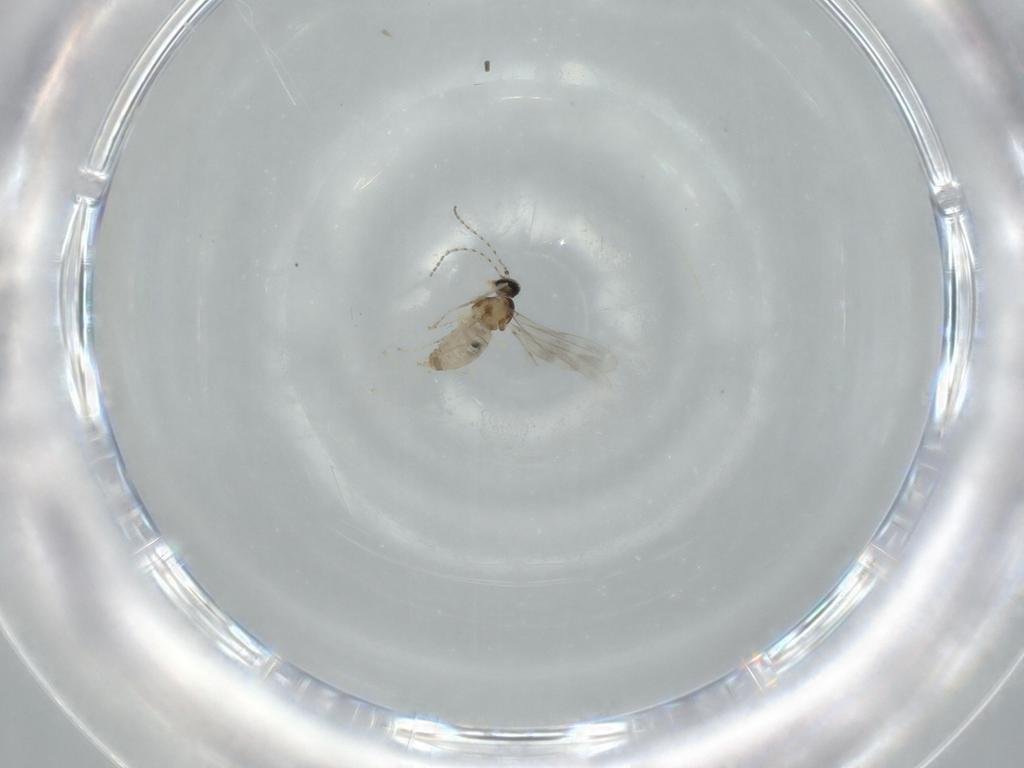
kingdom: Animalia
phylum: Arthropoda
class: Insecta
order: Diptera
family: Cecidomyiidae
